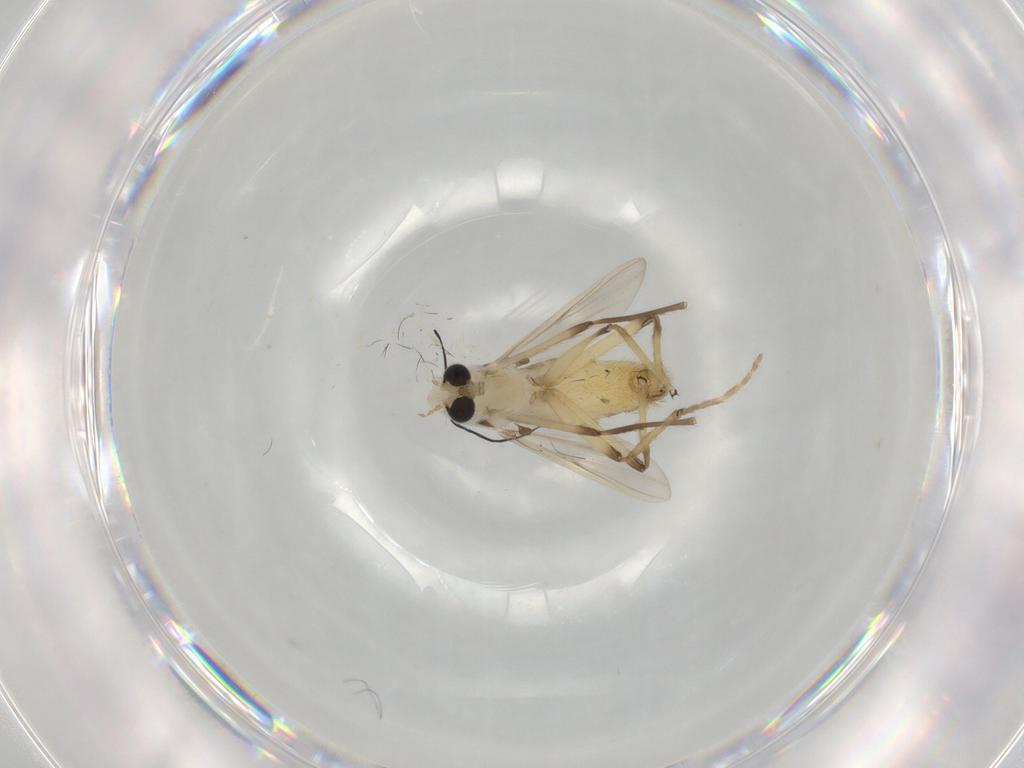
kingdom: Animalia
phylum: Arthropoda
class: Insecta
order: Diptera
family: Chironomidae
